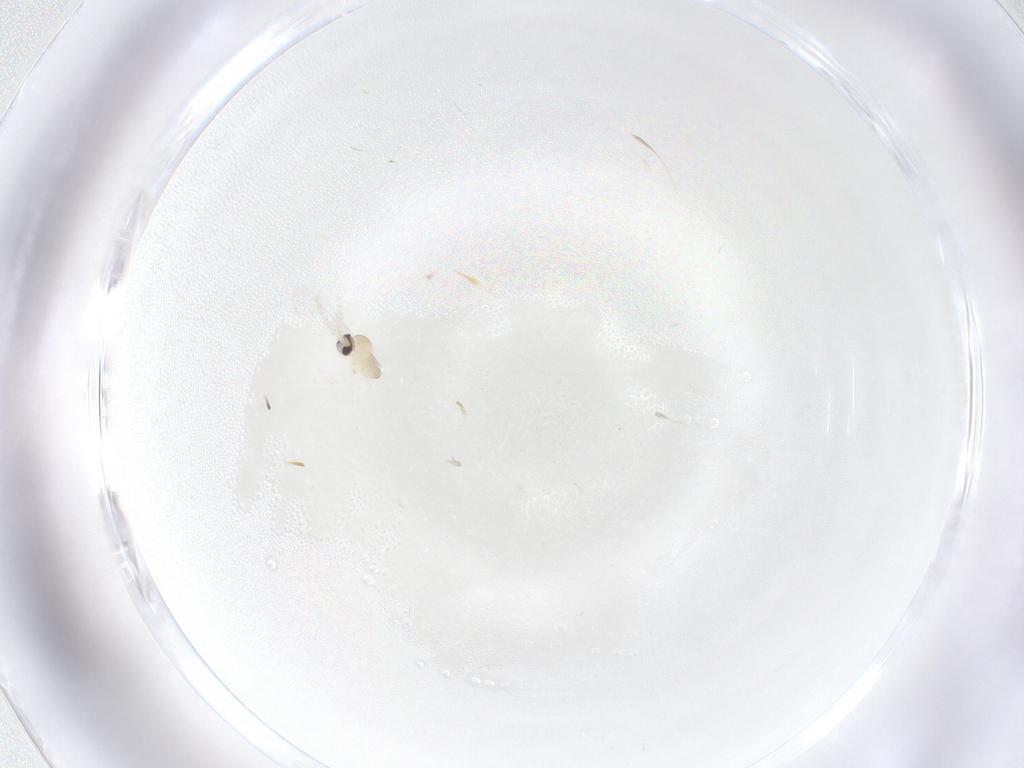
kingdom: Animalia
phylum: Arthropoda
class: Insecta
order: Diptera
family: Cecidomyiidae
